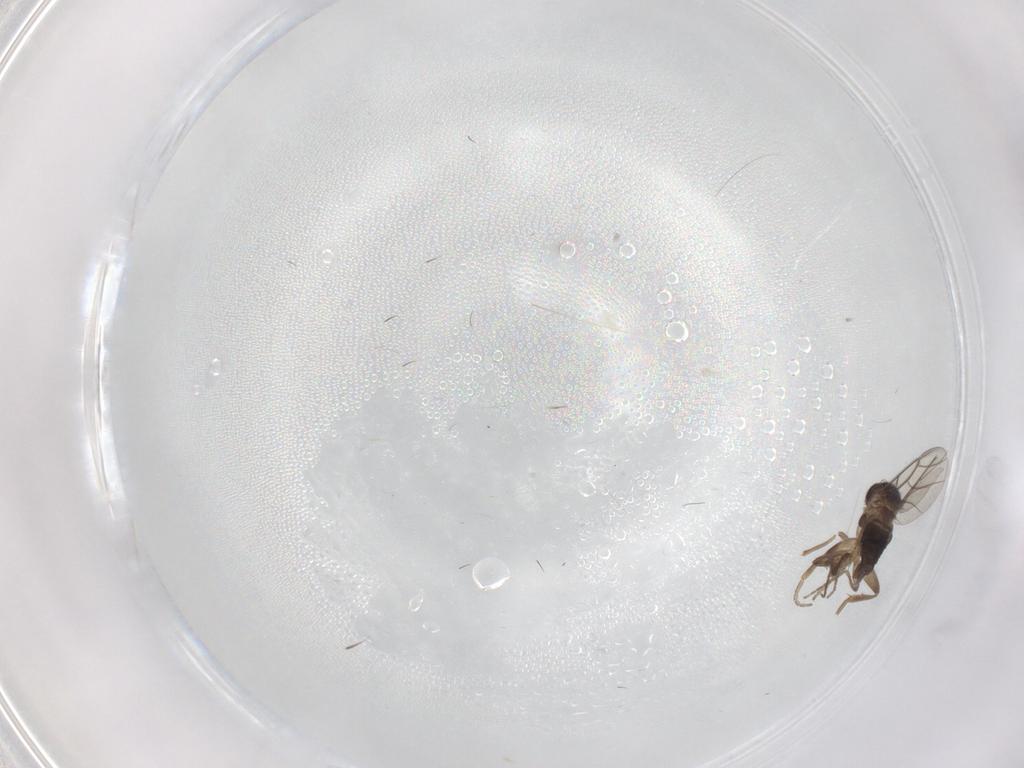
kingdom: Animalia
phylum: Arthropoda
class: Insecta
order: Diptera
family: Phoridae
